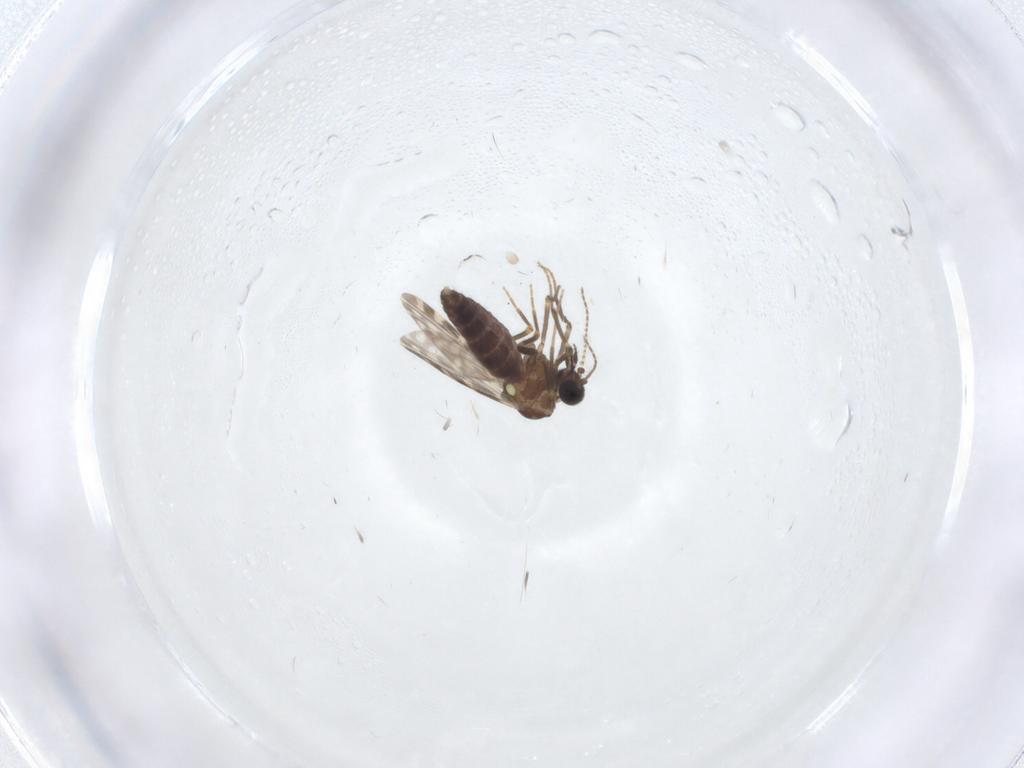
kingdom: Animalia
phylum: Arthropoda
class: Insecta
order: Diptera
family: Ceratopogonidae
